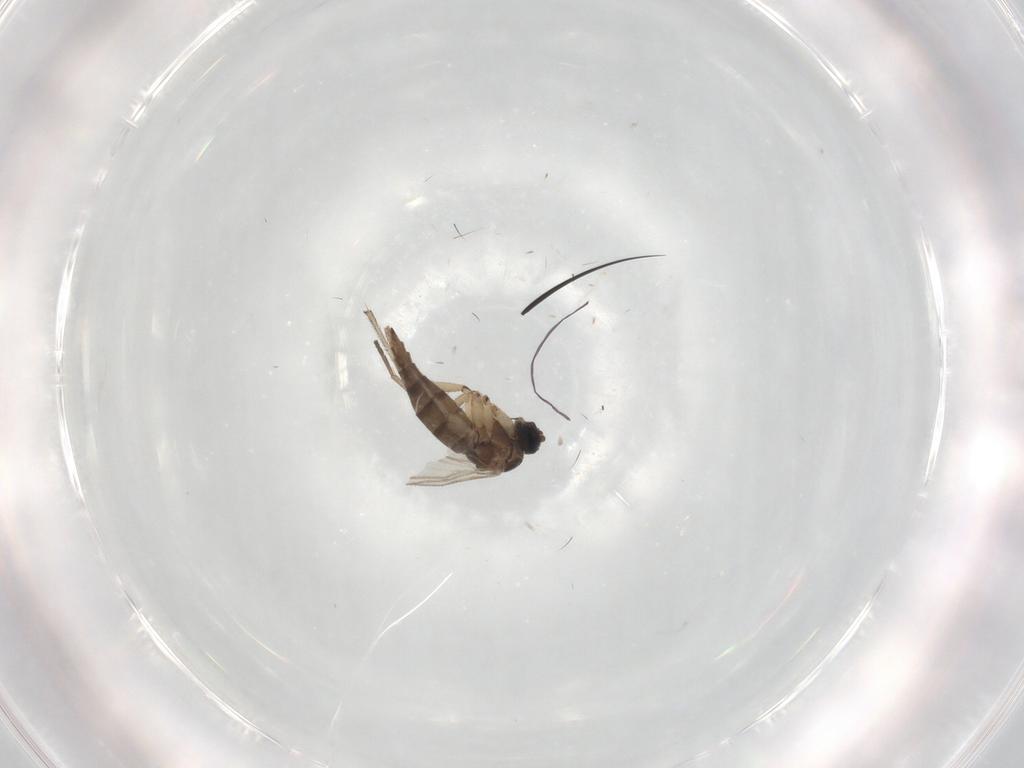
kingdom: Animalia
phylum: Arthropoda
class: Insecta
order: Diptera
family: Sciaridae
